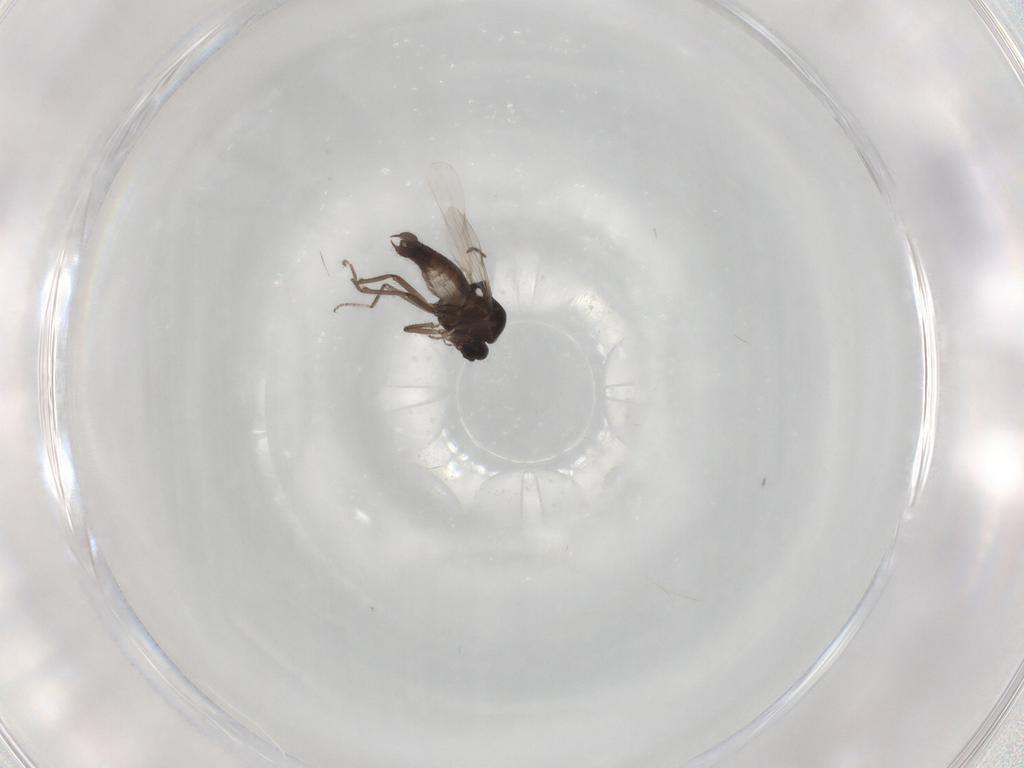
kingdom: Animalia
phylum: Arthropoda
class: Insecta
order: Diptera
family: Ceratopogonidae
